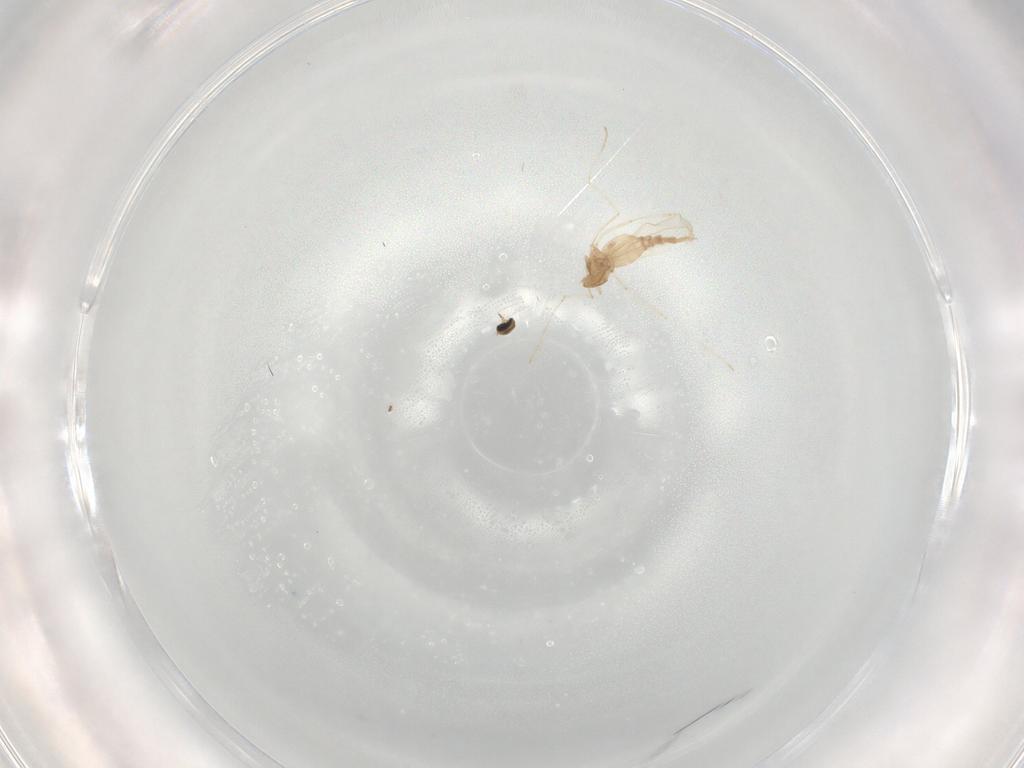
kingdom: Animalia
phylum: Arthropoda
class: Insecta
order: Diptera
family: Cecidomyiidae
